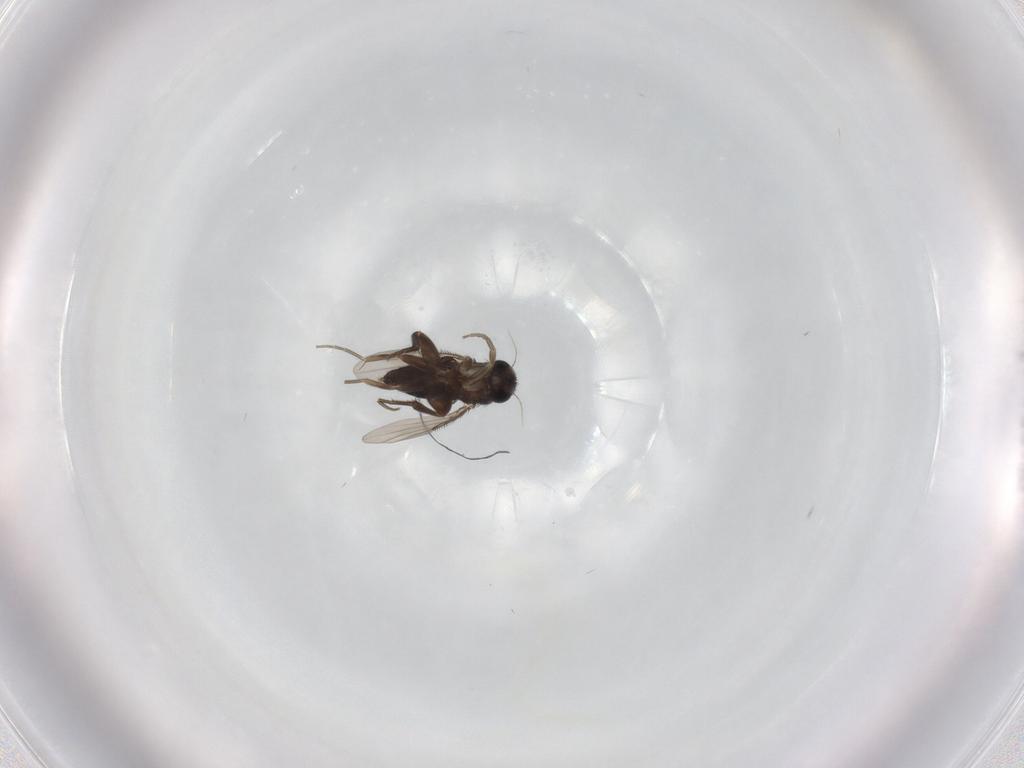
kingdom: Animalia
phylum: Arthropoda
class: Insecta
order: Diptera
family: Phoridae
